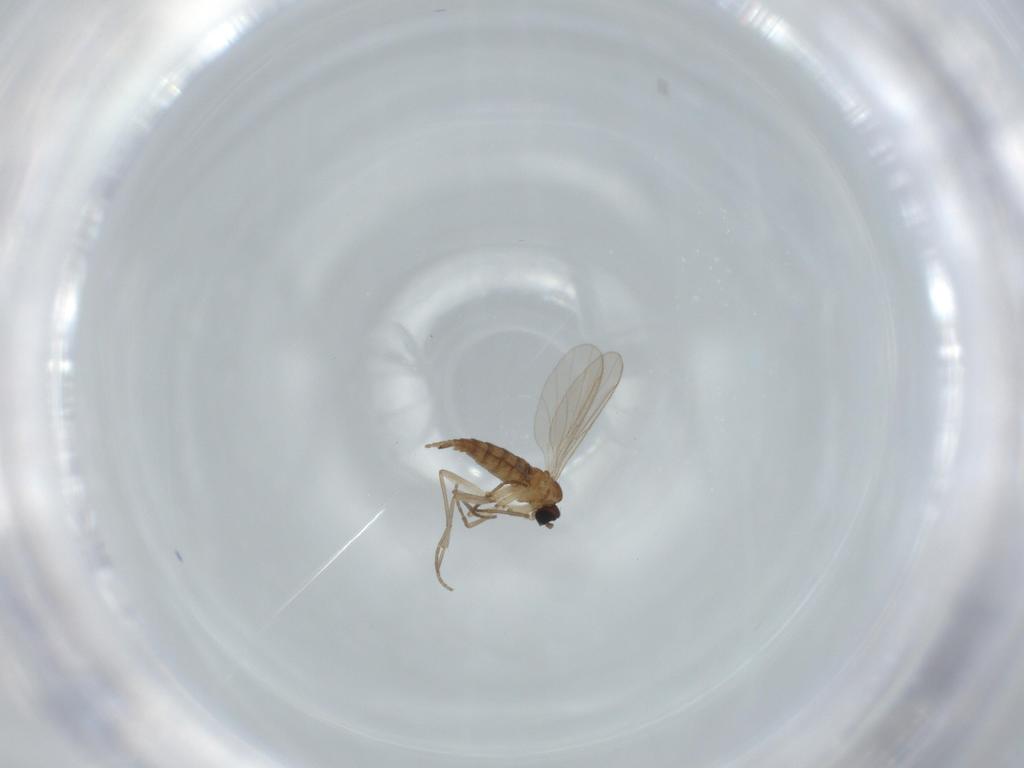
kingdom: Animalia
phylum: Arthropoda
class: Insecta
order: Diptera
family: Sciaridae
